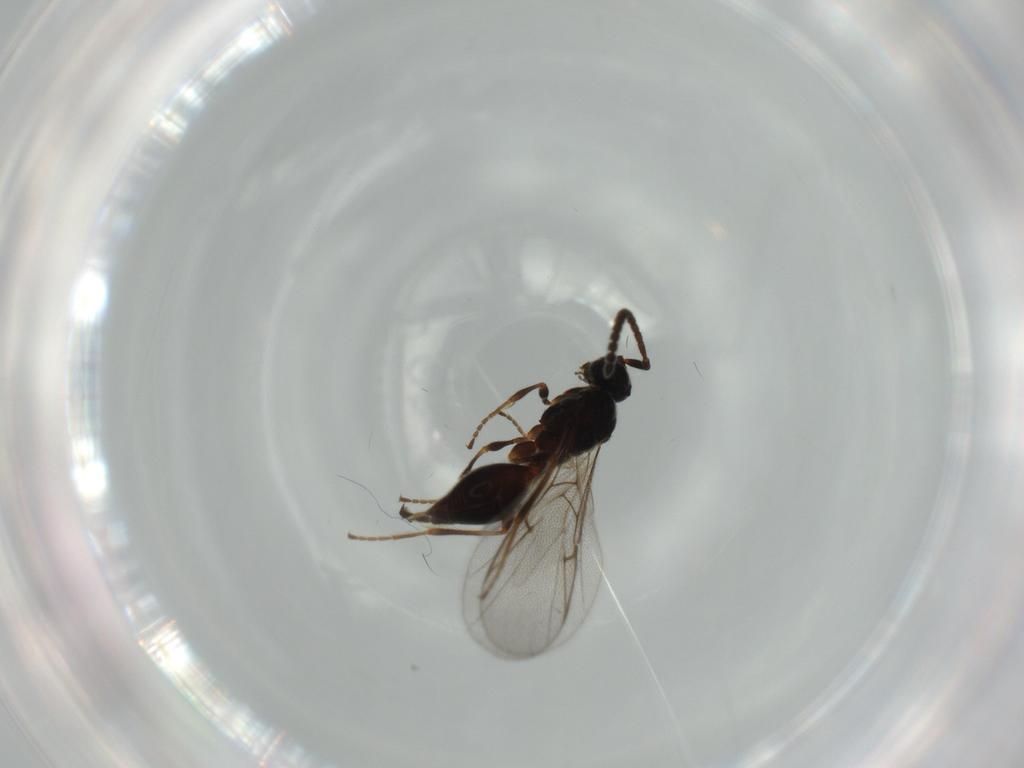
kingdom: Animalia
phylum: Arthropoda
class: Insecta
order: Hymenoptera
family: Ichneumonidae
